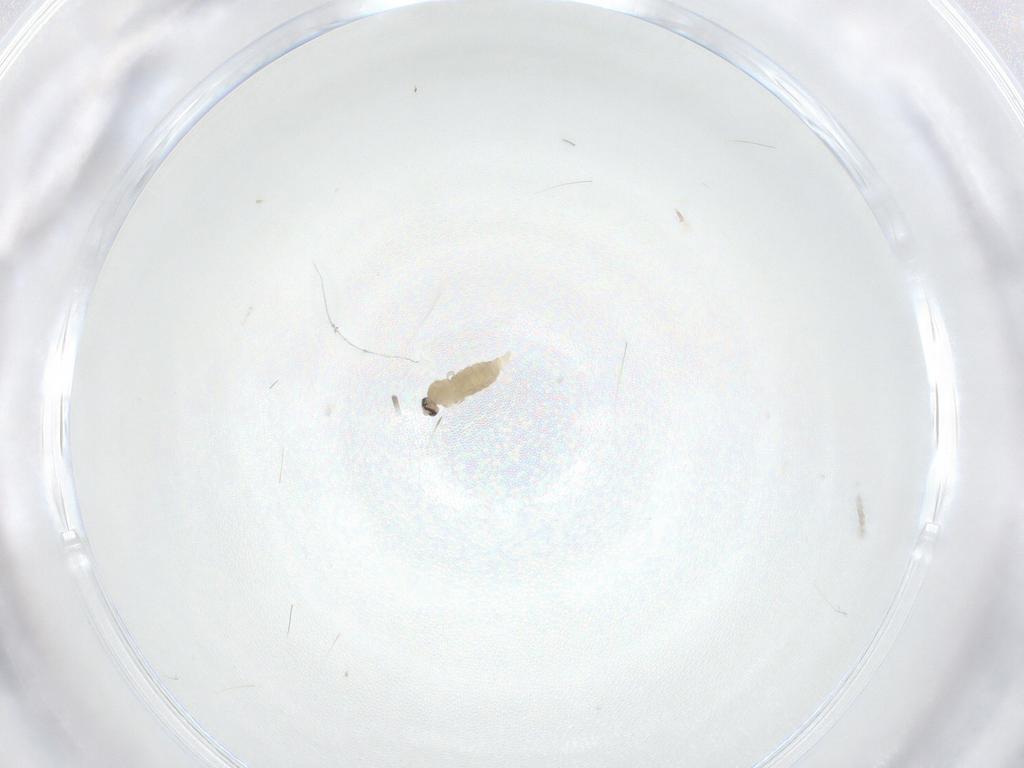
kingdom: Animalia
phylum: Arthropoda
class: Insecta
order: Diptera
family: Cecidomyiidae
